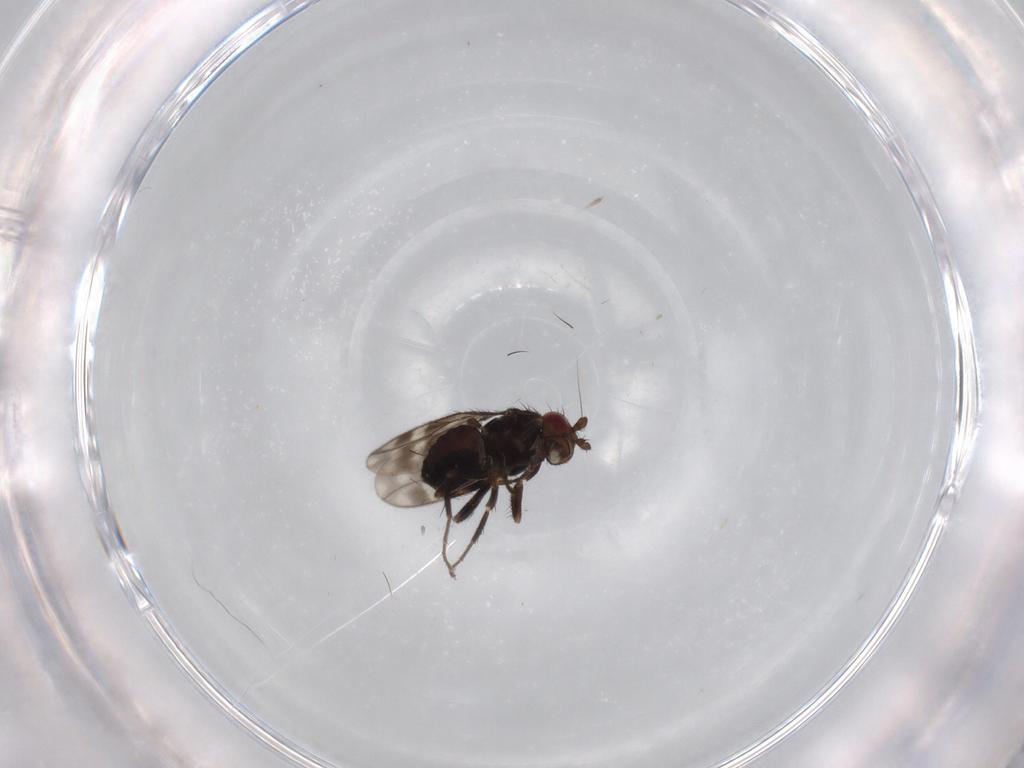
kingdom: Animalia
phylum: Arthropoda
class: Insecta
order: Diptera
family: Sphaeroceridae
